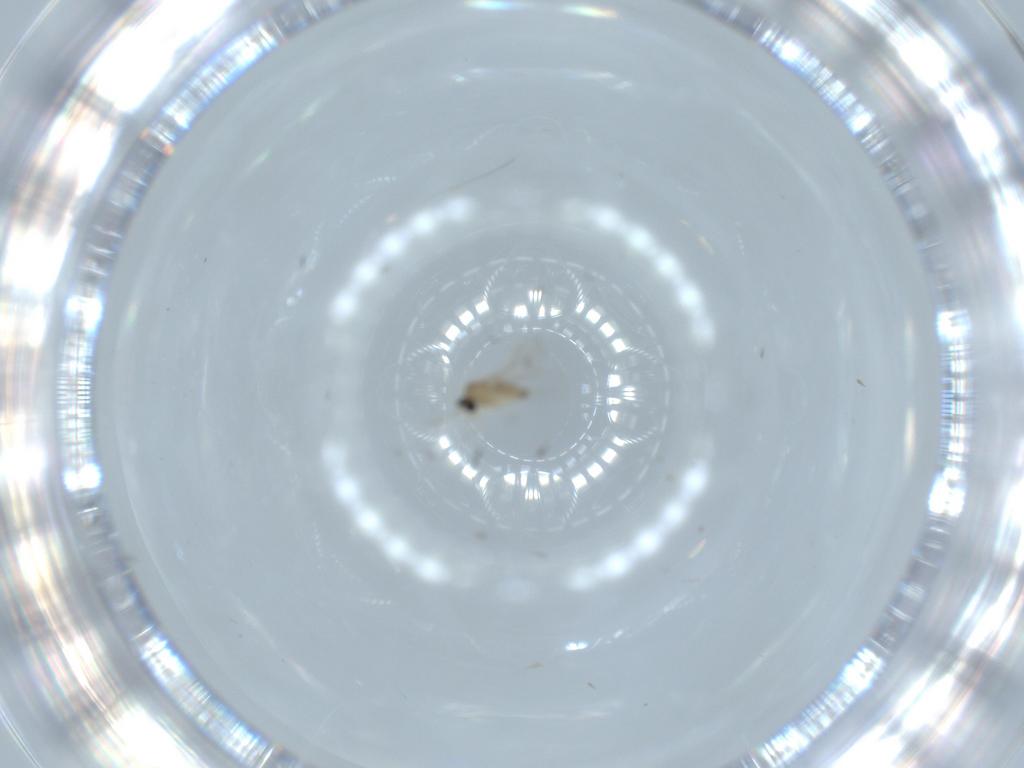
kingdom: Animalia
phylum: Arthropoda
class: Insecta
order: Diptera
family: Cecidomyiidae
